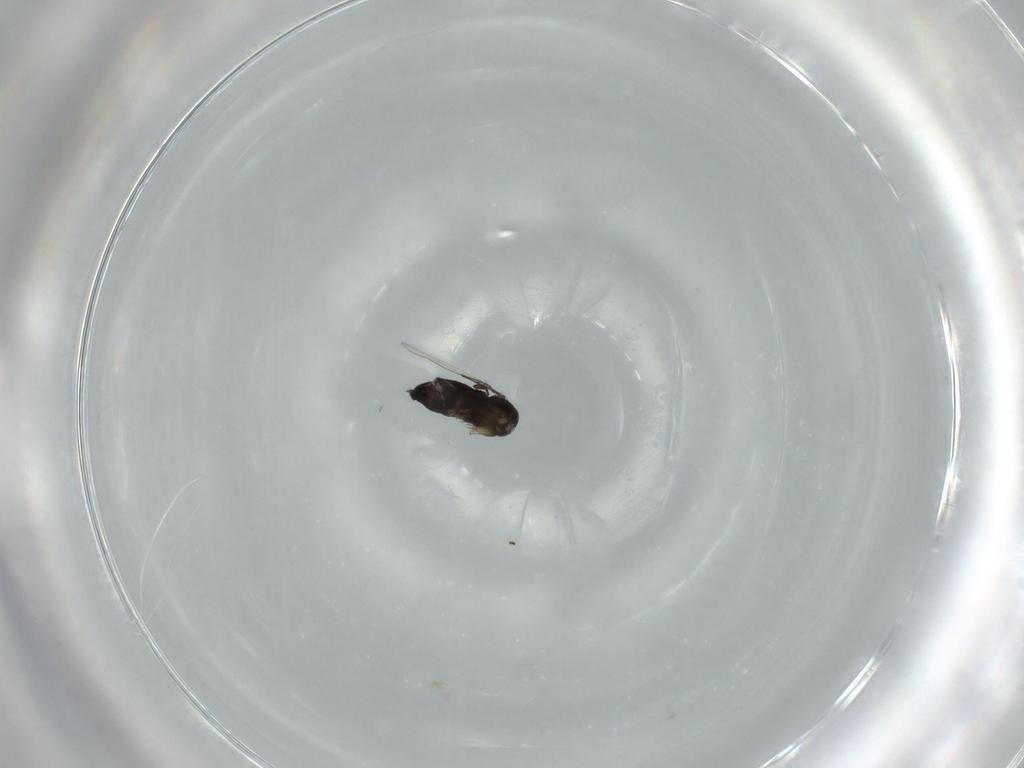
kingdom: Animalia
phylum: Arthropoda
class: Insecta
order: Diptera
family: Phoridae
